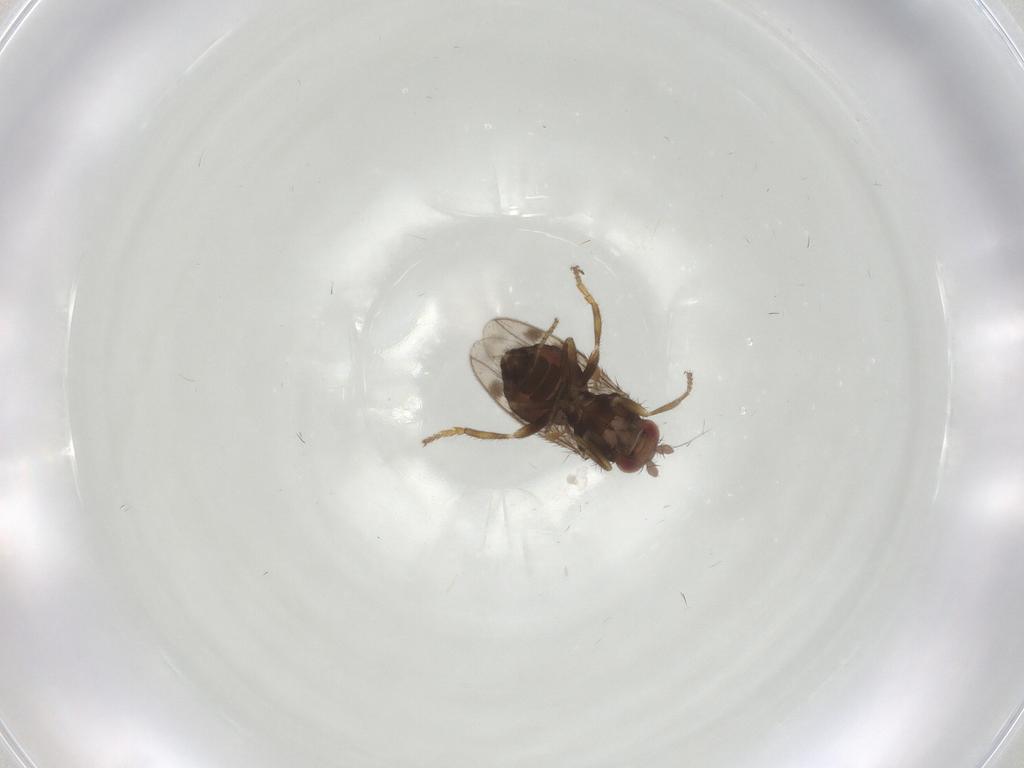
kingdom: Animalia
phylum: Arthropoda
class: Insecta
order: Diptera
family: Sphaeroceridae
